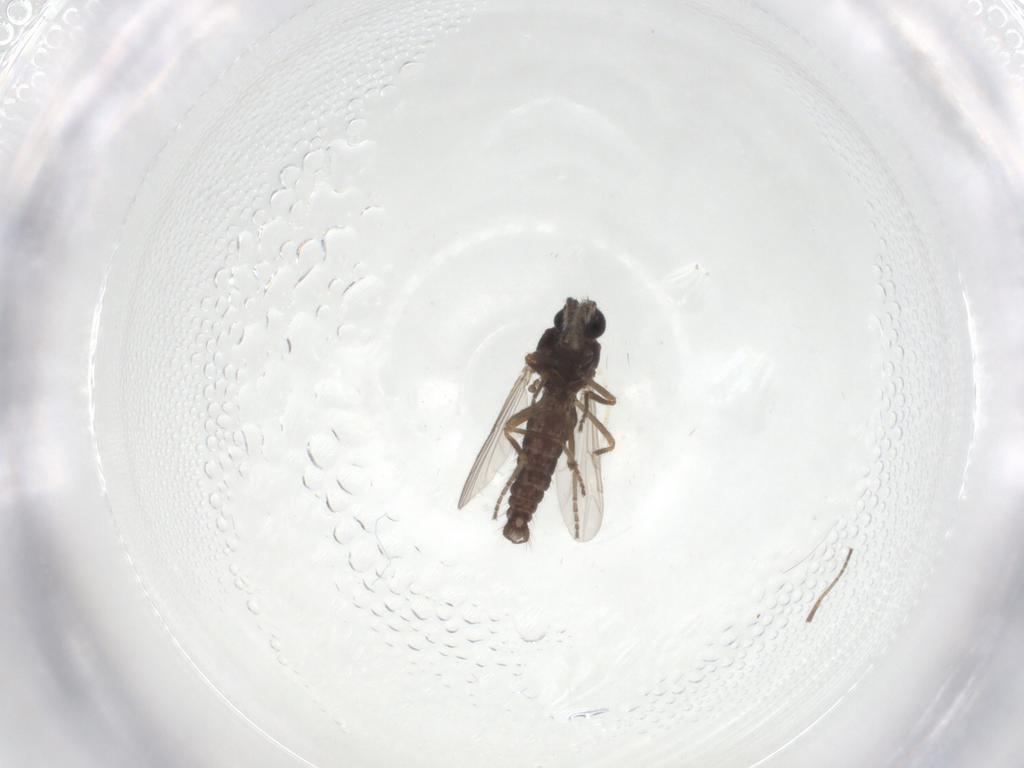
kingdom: Animalia
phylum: Arthropoda
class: Insecta
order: Diptera
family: Ceratopogonidae
